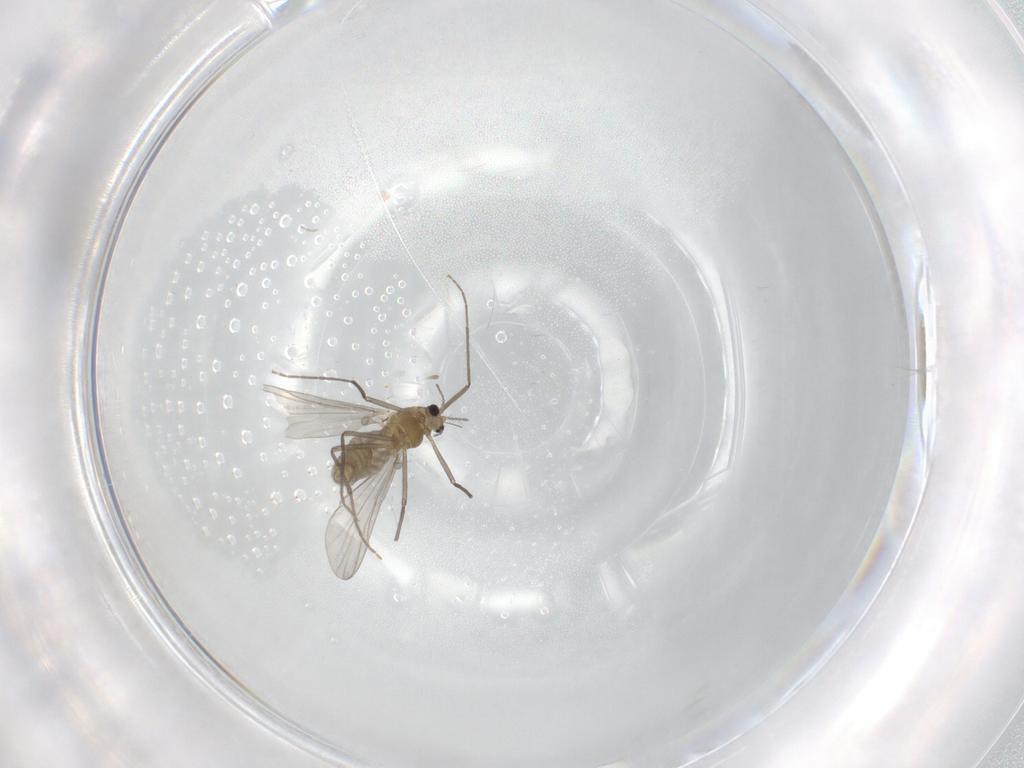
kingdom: Animalia
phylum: Arthropoda
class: Insecta
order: Diptera
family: Chironomidae
